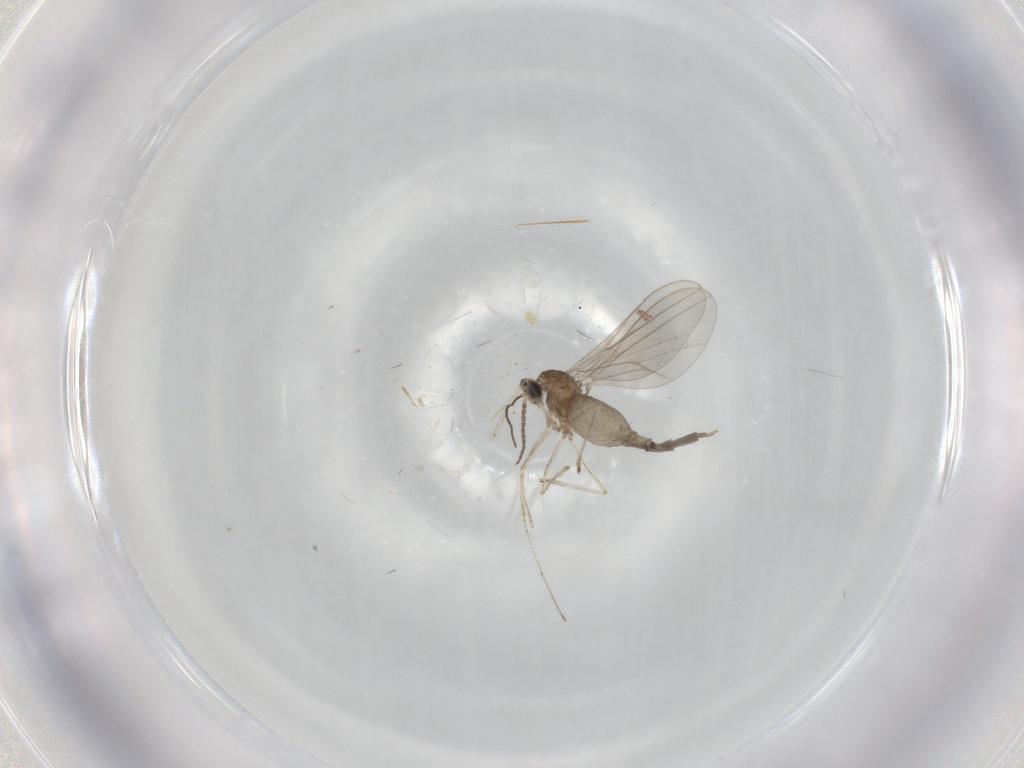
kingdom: Animalia
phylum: Arthropoda
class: Insecta
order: Diptera
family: Cecidomyiidae
